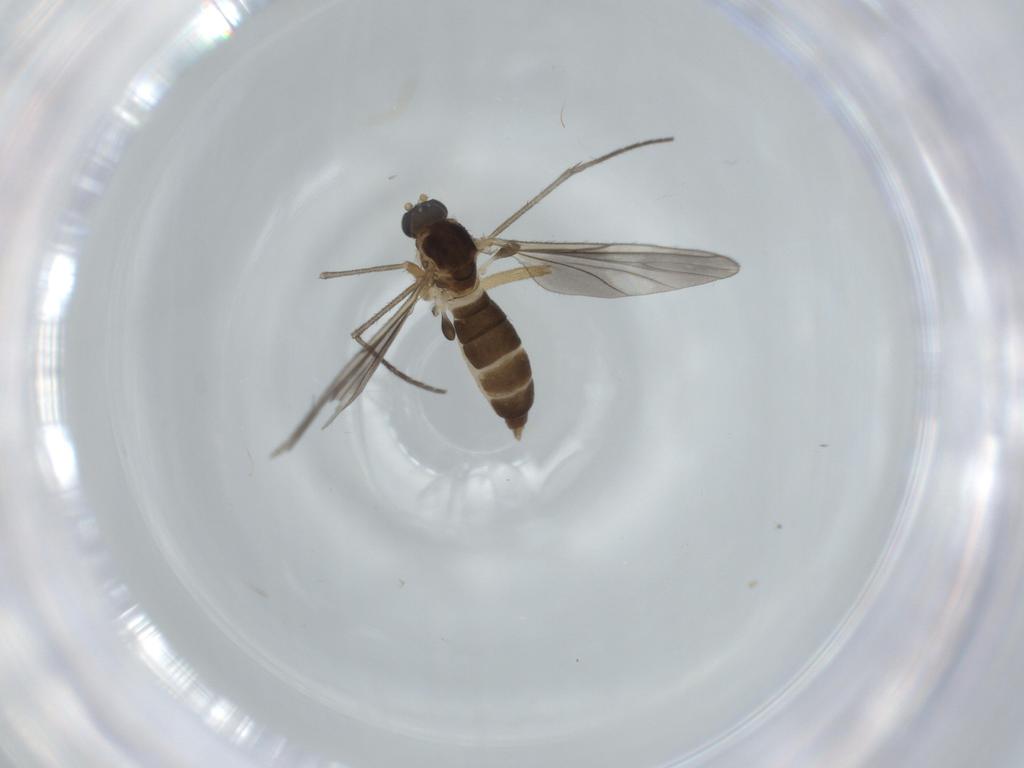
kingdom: Animalia
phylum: Arthropoda
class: Insecta
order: Diptera
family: Sciaridae
